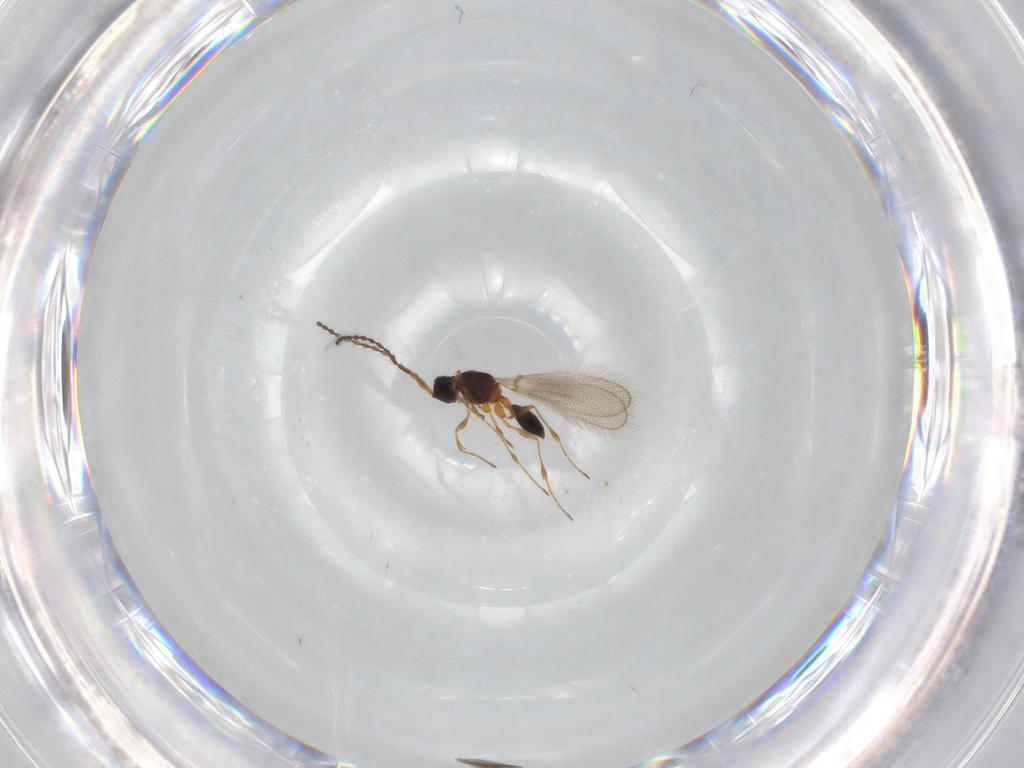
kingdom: Animalia
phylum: Arthropoda
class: Insecta
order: Hymenoptera
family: Diapriidae
